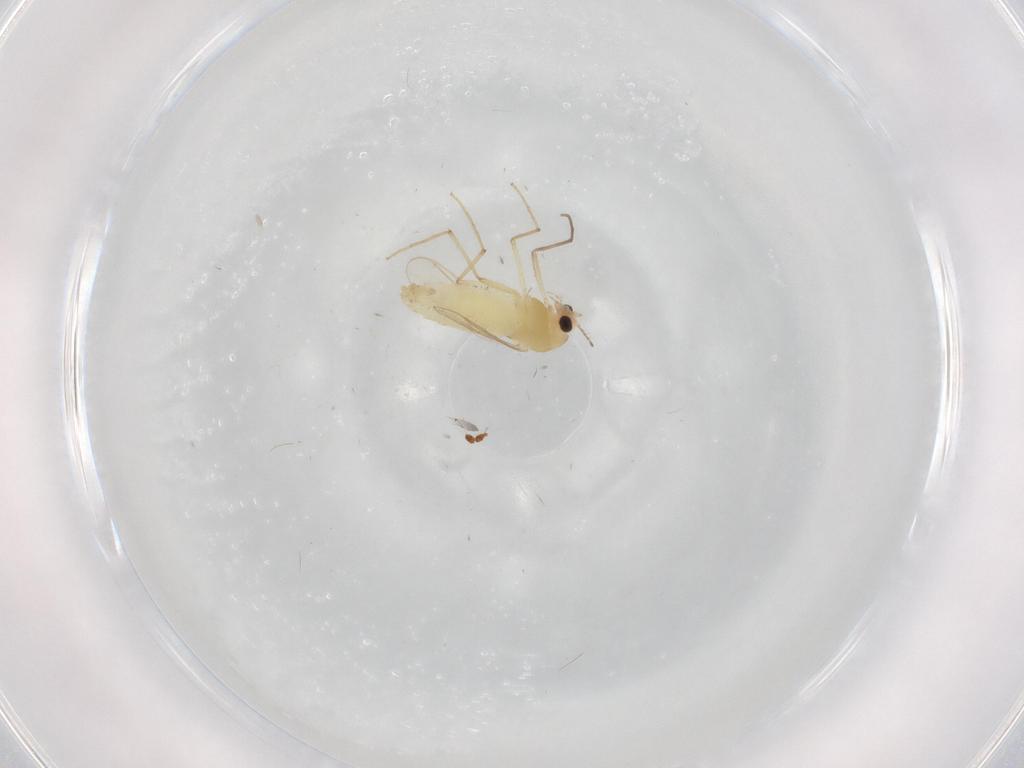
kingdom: Animalia
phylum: Arthropoda
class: Insecta
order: Diptera
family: Chironomidae
